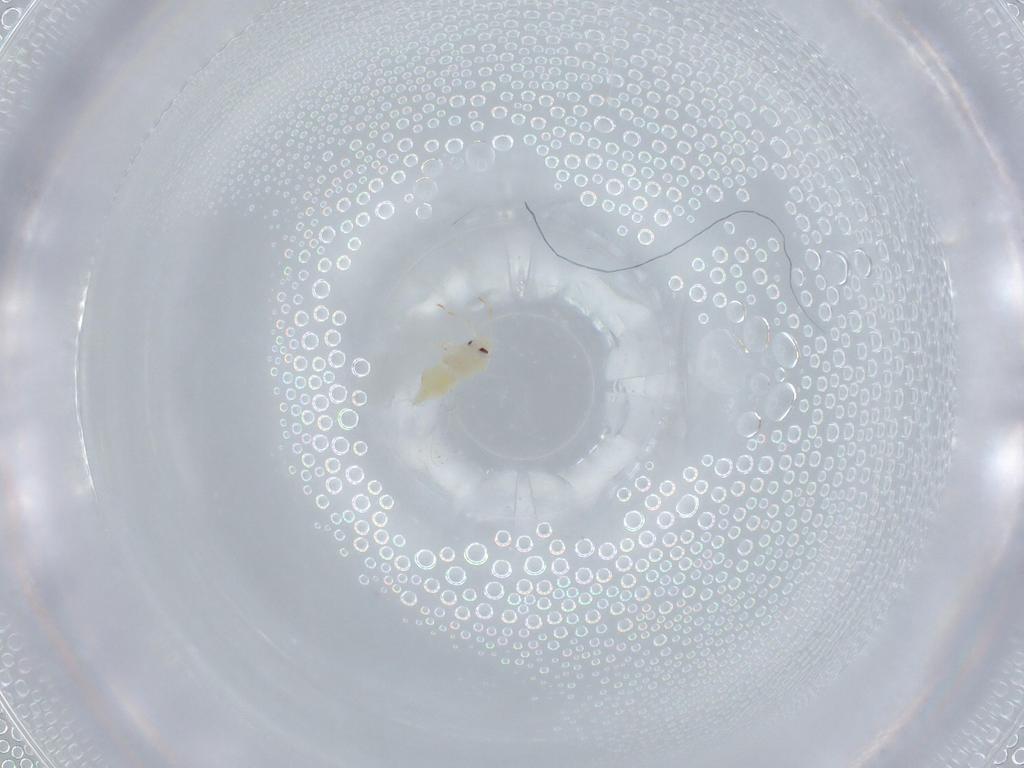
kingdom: Animalia
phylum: Arthropoda
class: Insecta
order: Hemiptera
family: Aleyrodidae
